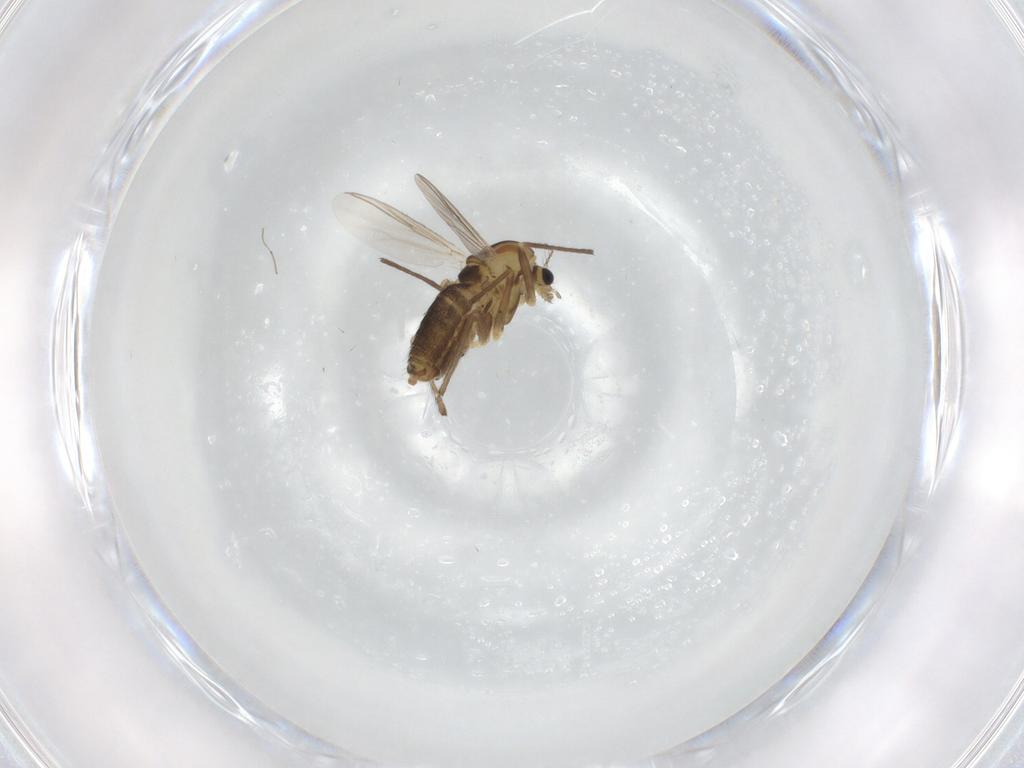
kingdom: Animalia
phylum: Arthropoda
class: Insecta
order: Diptera
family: Chironomidae
